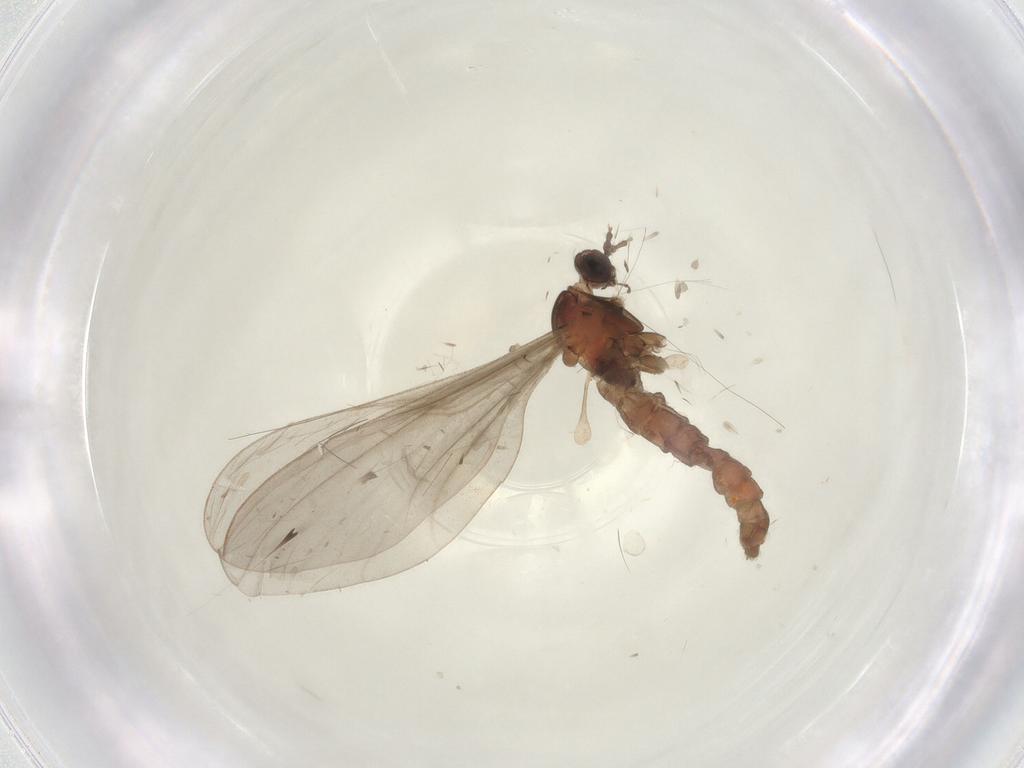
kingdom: Animalia
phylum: Arthropoda
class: Insecta
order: Diptera
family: Cecidomyiidae
